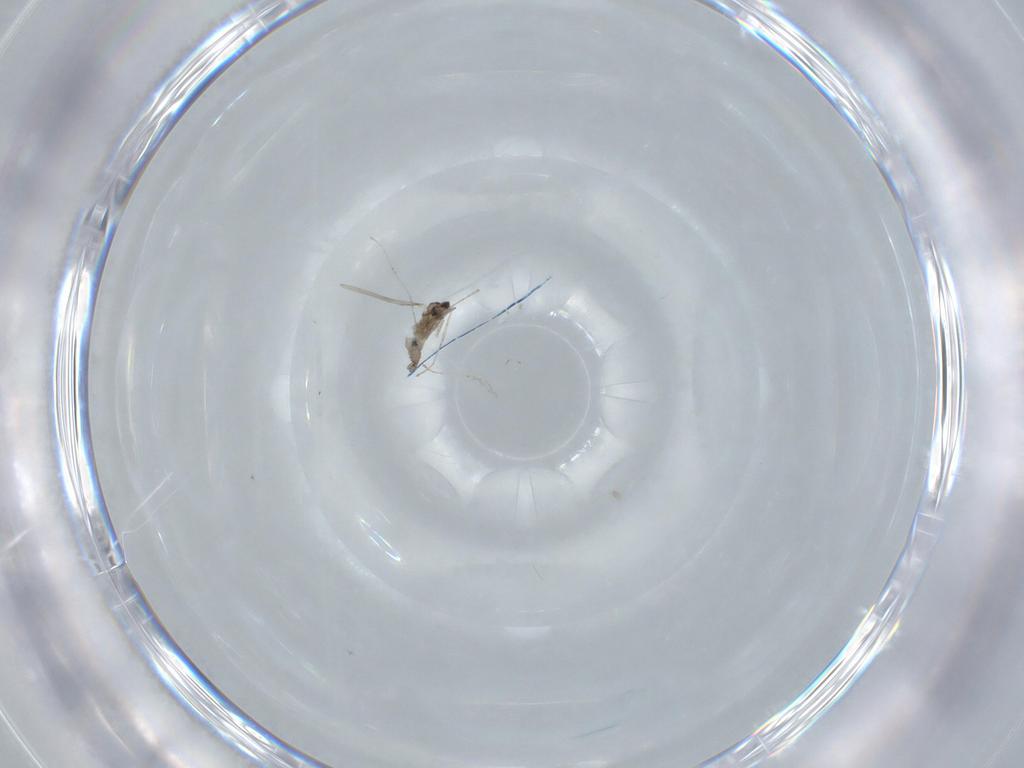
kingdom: Animalia
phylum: Arthropoda
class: Insecta
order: Diptera
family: Cecidomyiidae
